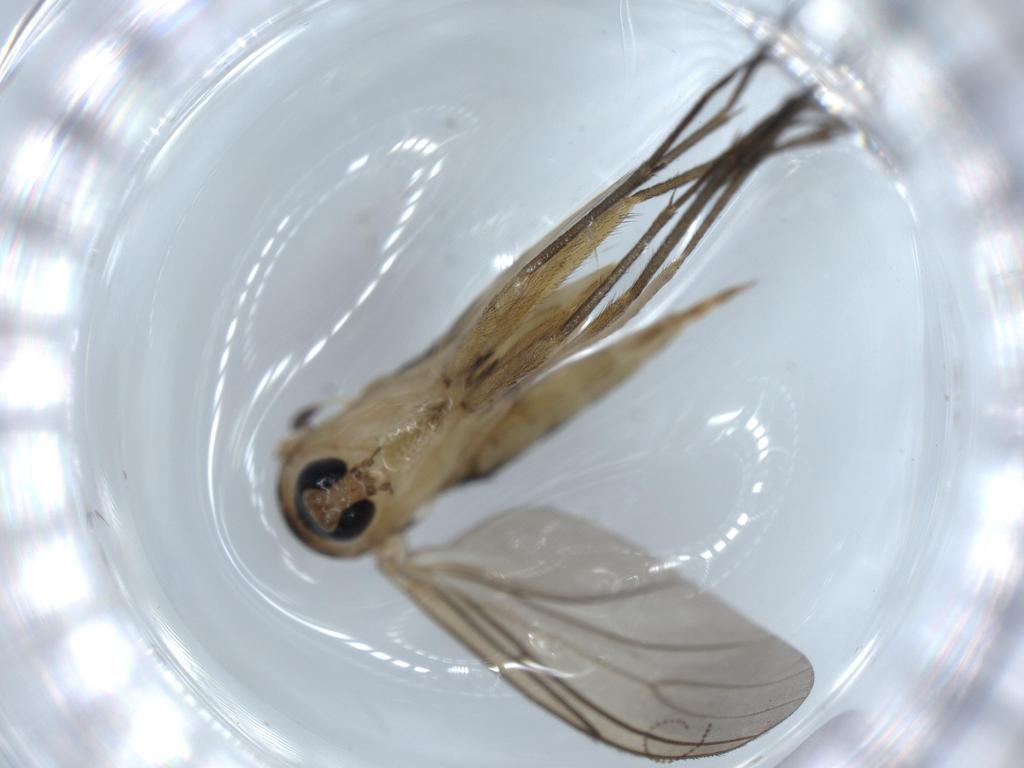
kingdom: Animalia
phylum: Arthropoda
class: Insecta
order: Diptera
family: Sciaridae
